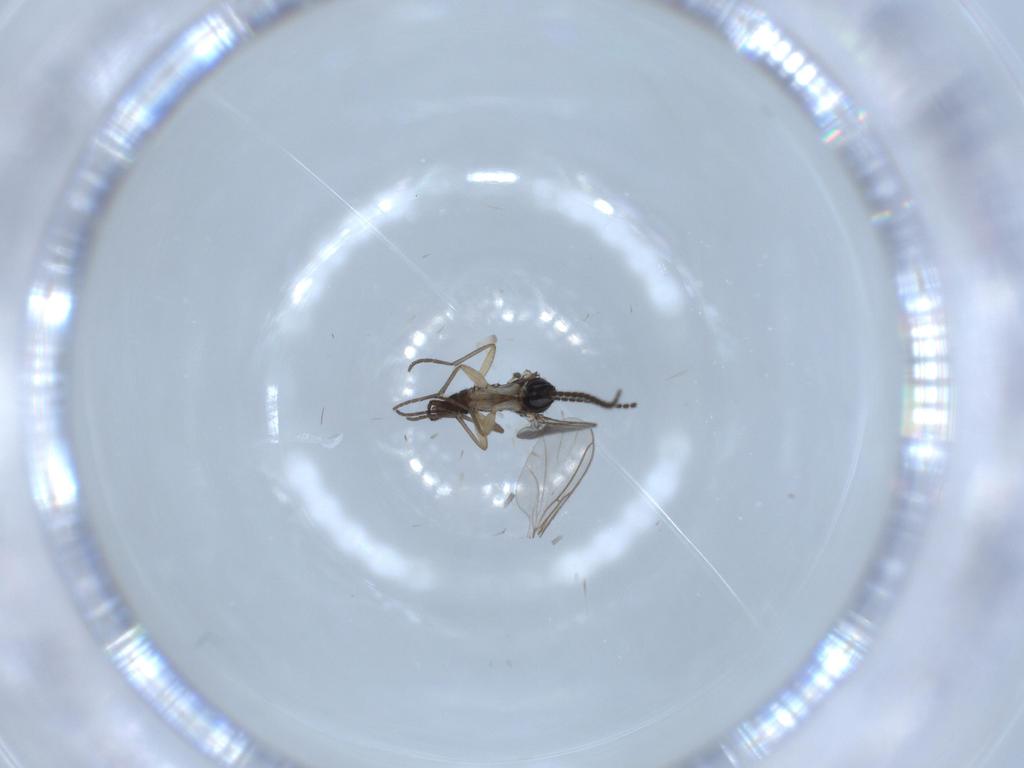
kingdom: Animalia
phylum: Arthropoda
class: Insecta
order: Diptera
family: Sciaridae
